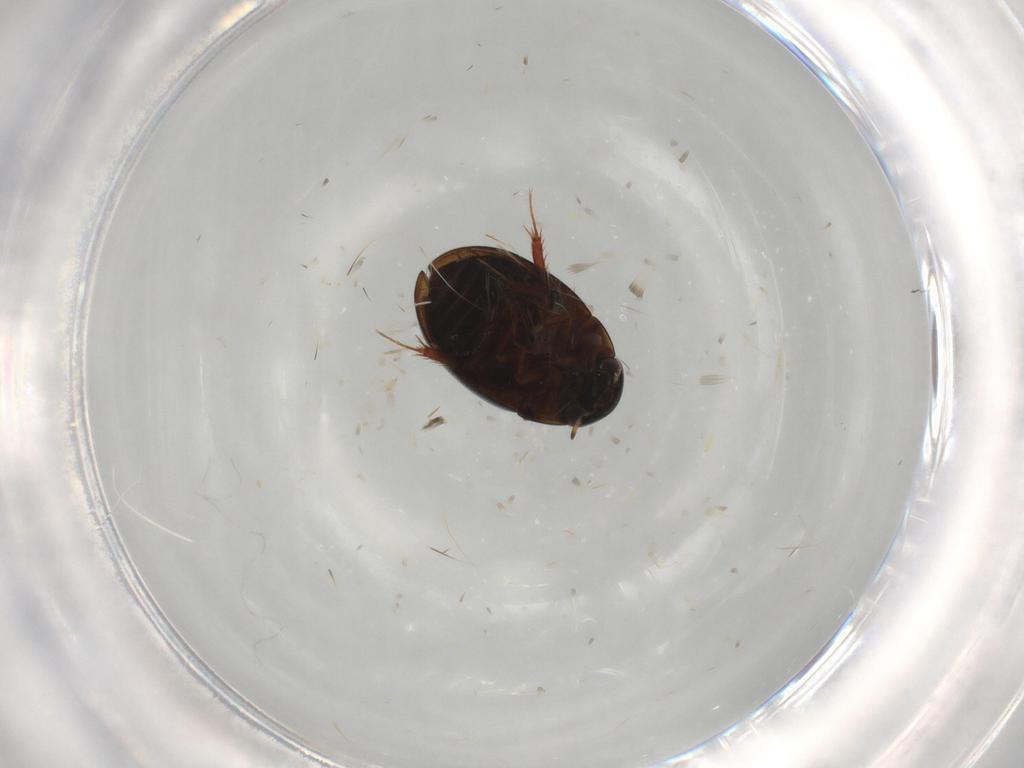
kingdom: Animalia
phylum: Arthropoda
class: Insecta
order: Coleoptera
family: Hydrophilidae
